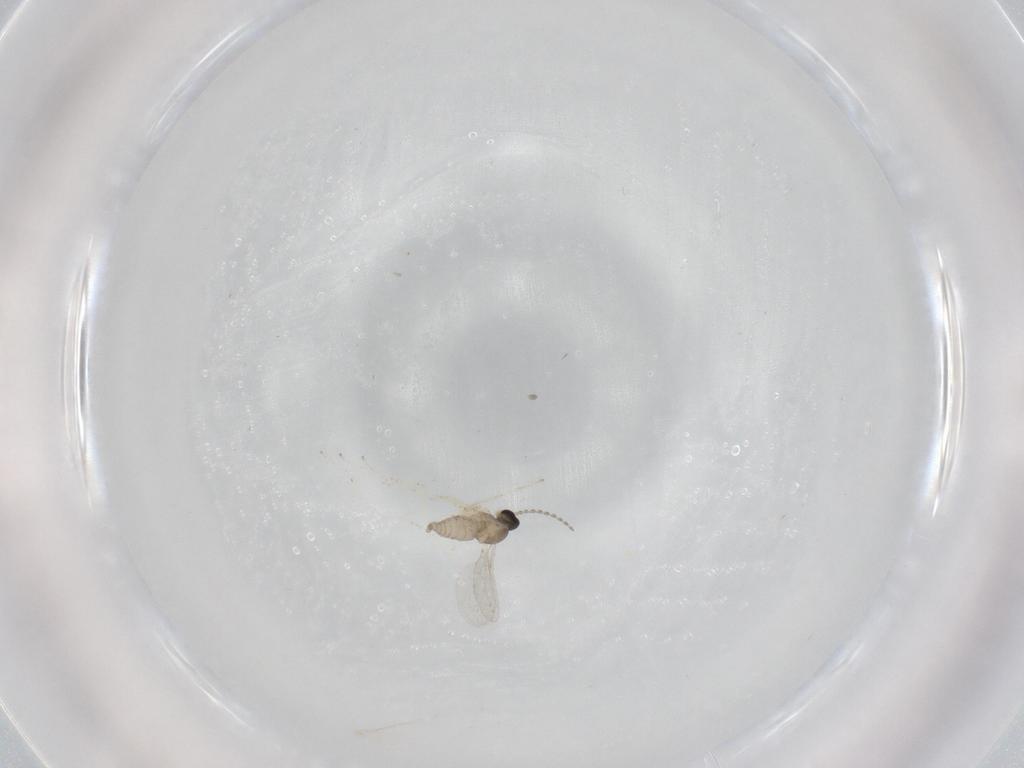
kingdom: Animalia
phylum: Arthropoda
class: Insecta
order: Diptera
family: Cecidomyiidae
